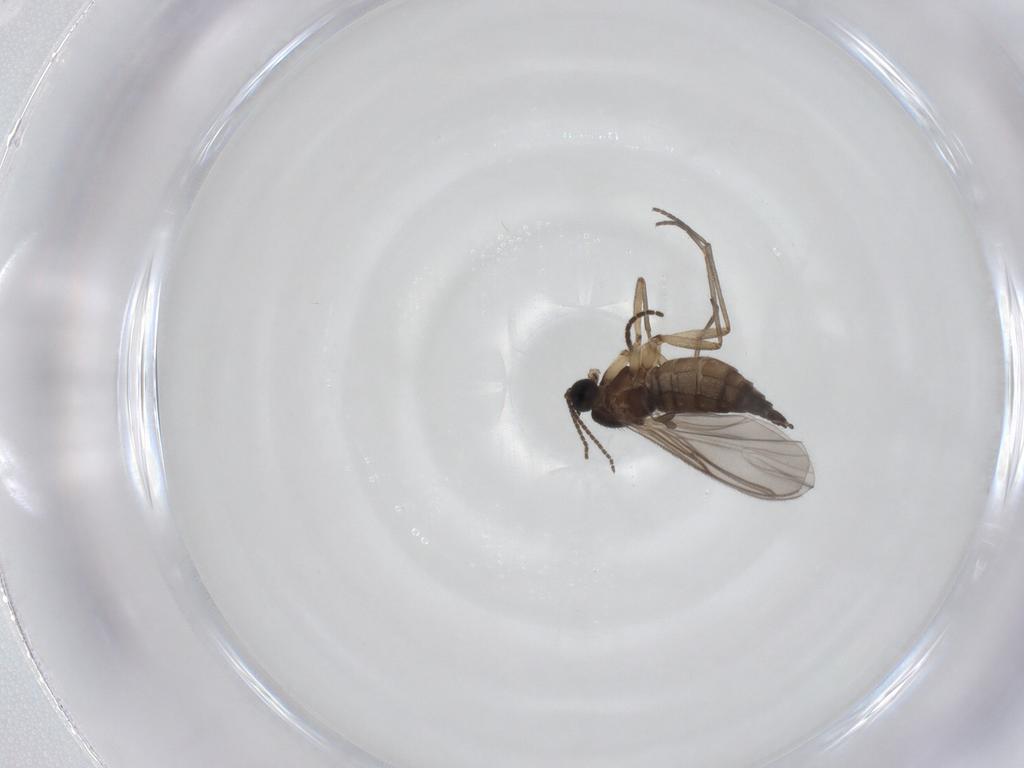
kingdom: Animalia
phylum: Arthropoda
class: Insecta
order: Diptera
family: Sciaridae
